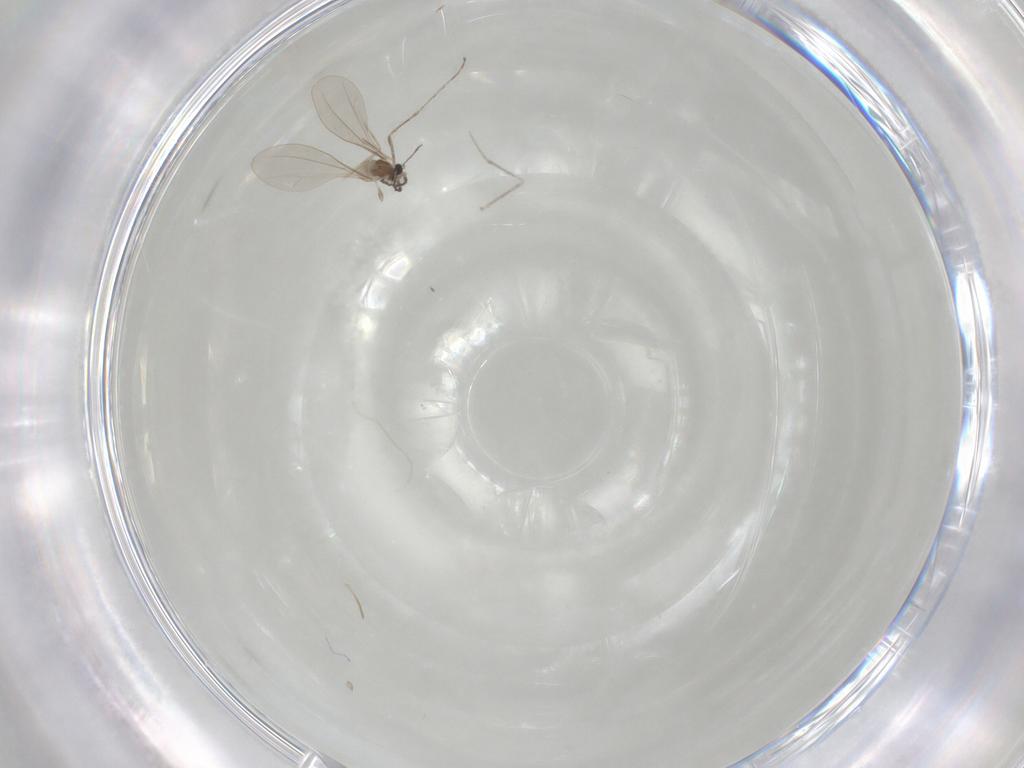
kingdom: Animalia
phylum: Arthropoda
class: Insecta
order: Diptera
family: Cecidomyiidae
